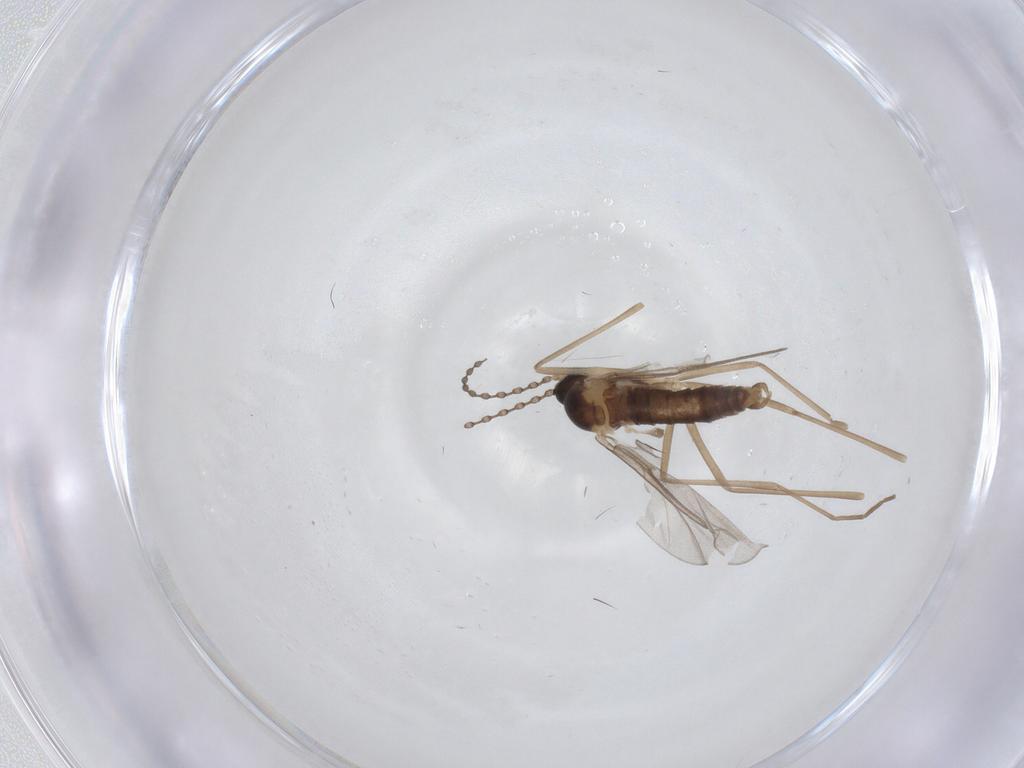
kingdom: Animalia
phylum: Arthropoda
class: Insecta
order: Diptera
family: Cecidomyiidae
